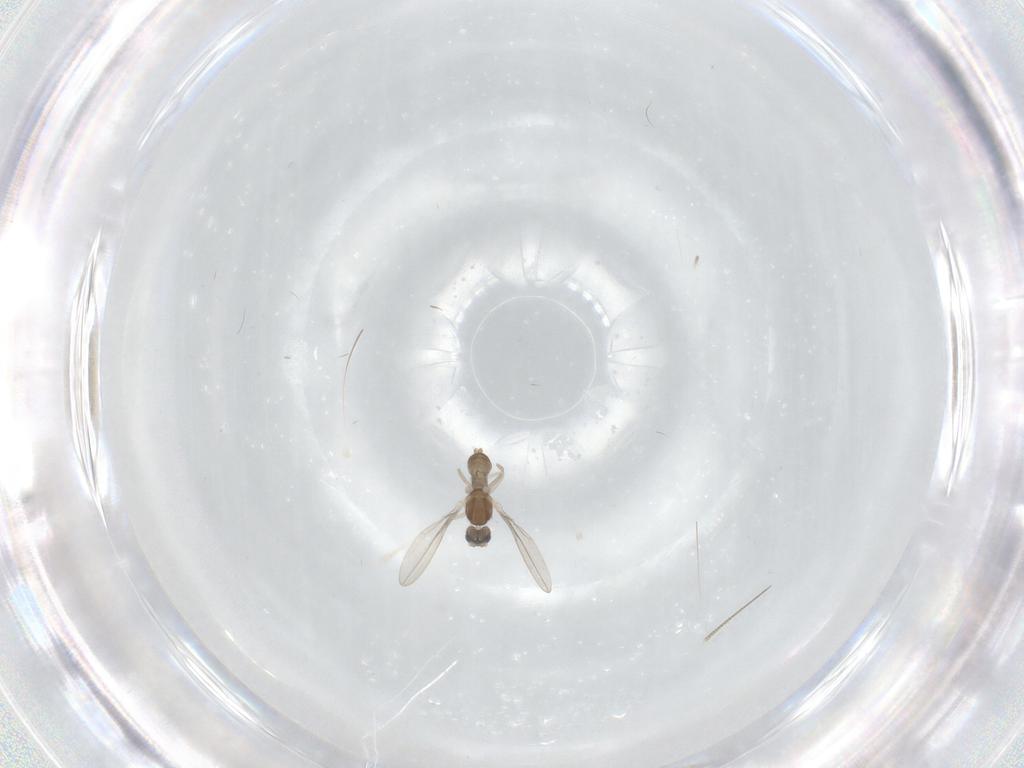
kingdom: Animalia
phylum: Arthropoda
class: Insecta
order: Diptera
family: Cecidomyiidae
